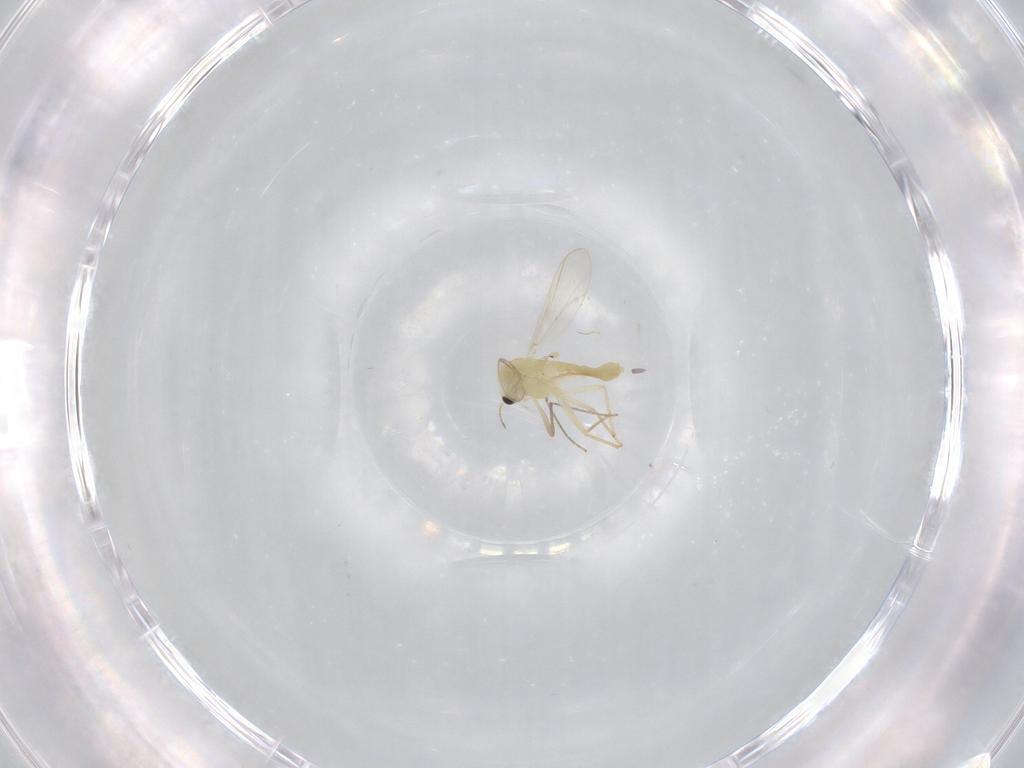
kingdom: Animalia
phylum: Arthropoda
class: Insecta
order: Diptera
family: Chironomidae
